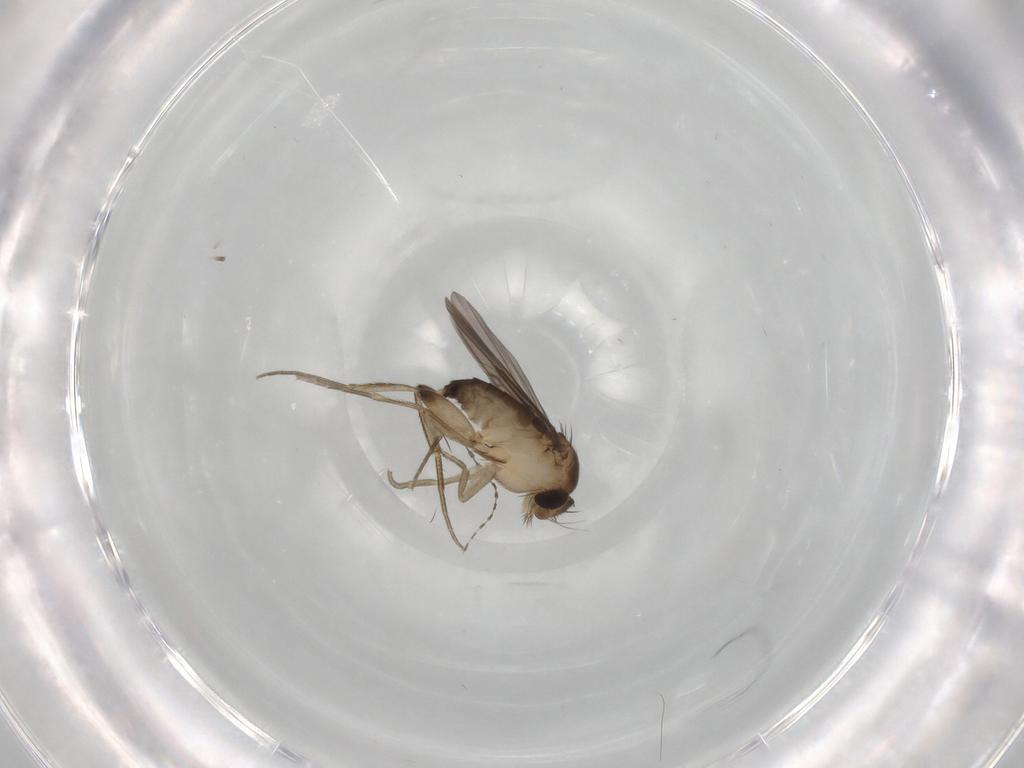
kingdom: Animalia
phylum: Arthropoda
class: Insecta
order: Diptera
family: Phoridae
